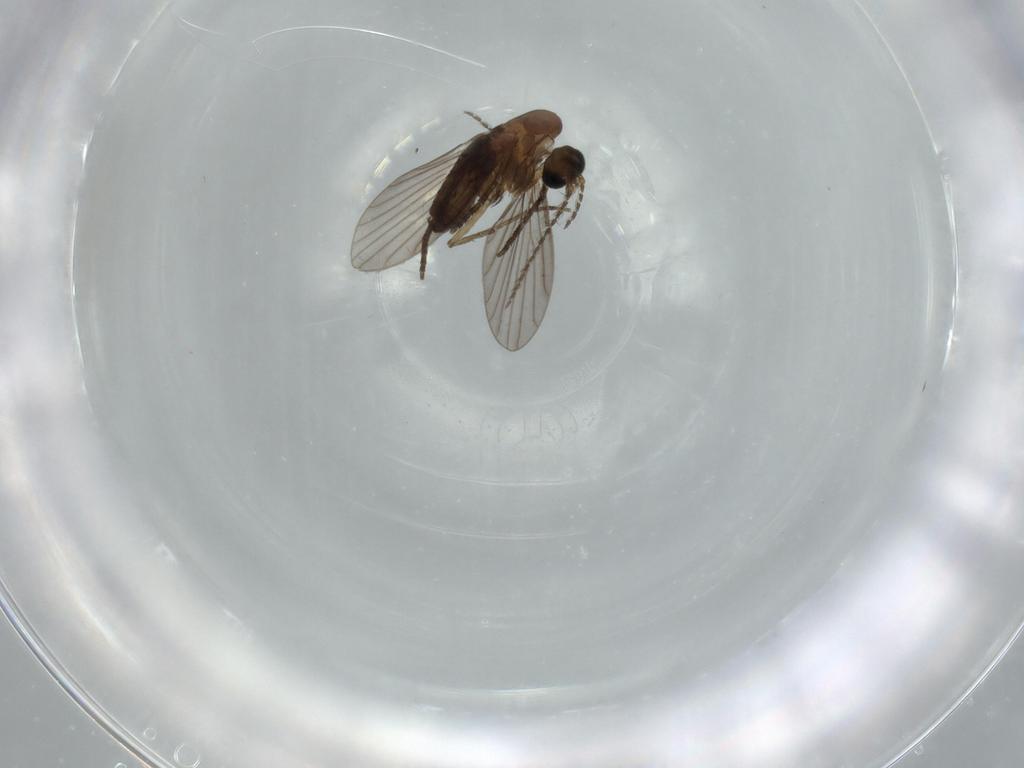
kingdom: Animalia
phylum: Arthropoda
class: Insecta
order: Diptera
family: Psychodidae
